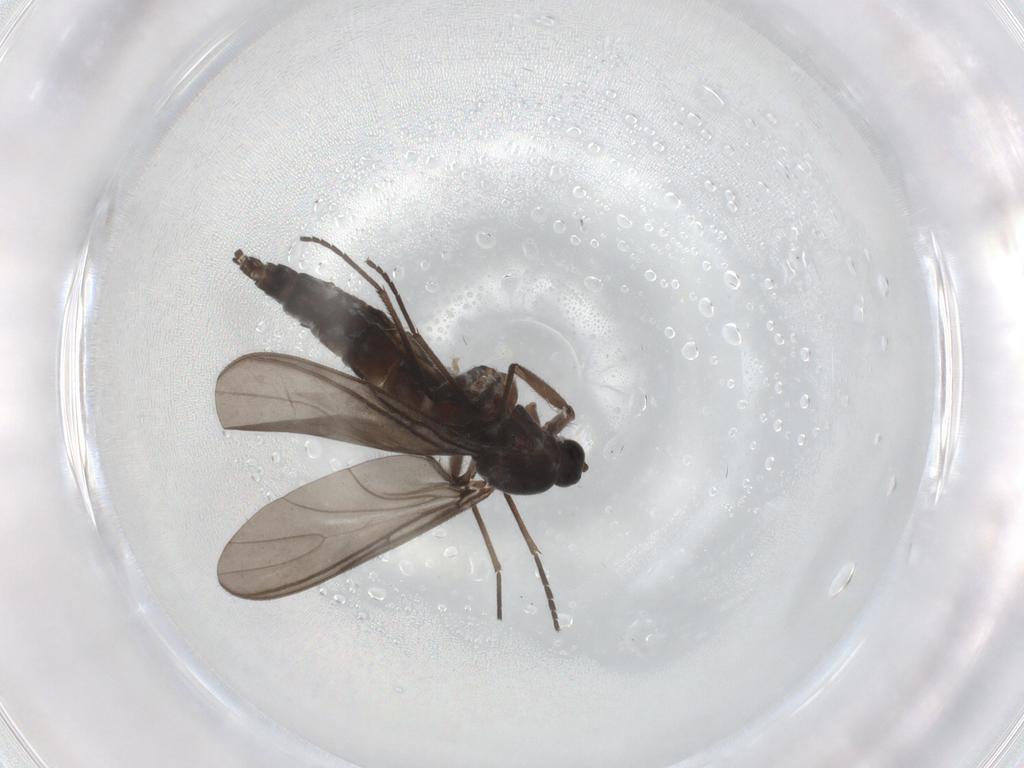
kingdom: Animalia
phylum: Arthropoda
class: Insecta
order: Diptera
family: Sciaridae
